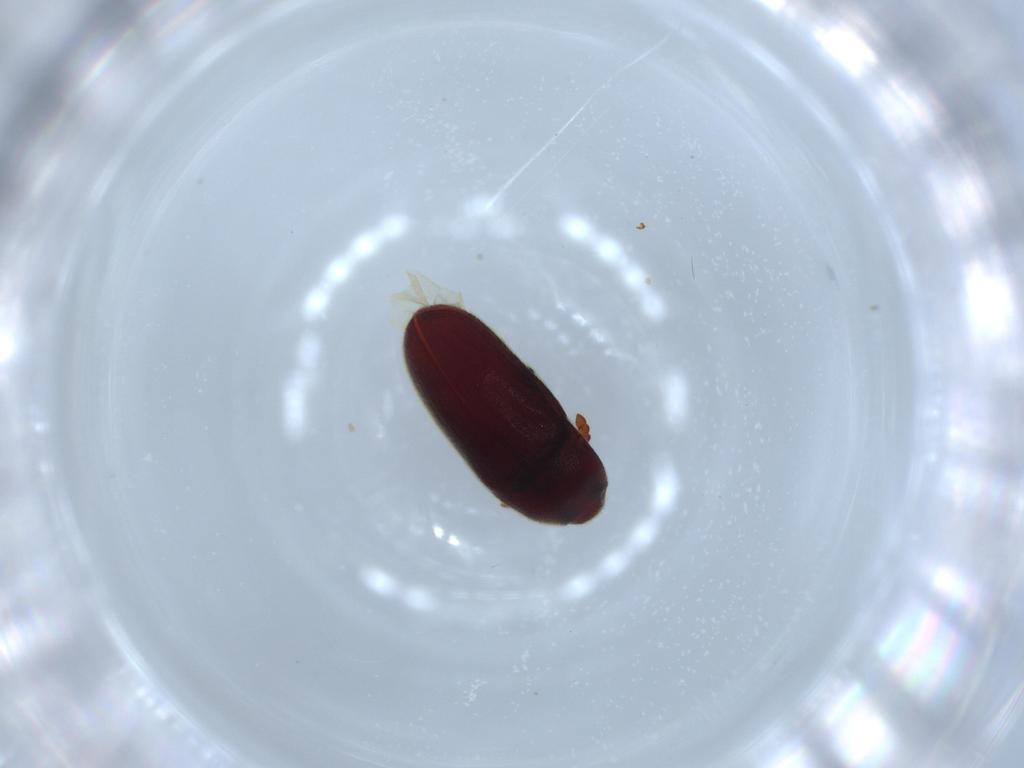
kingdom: Animalia
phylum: Arthropoda
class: Insecta
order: Coleoptera
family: Throscidae
